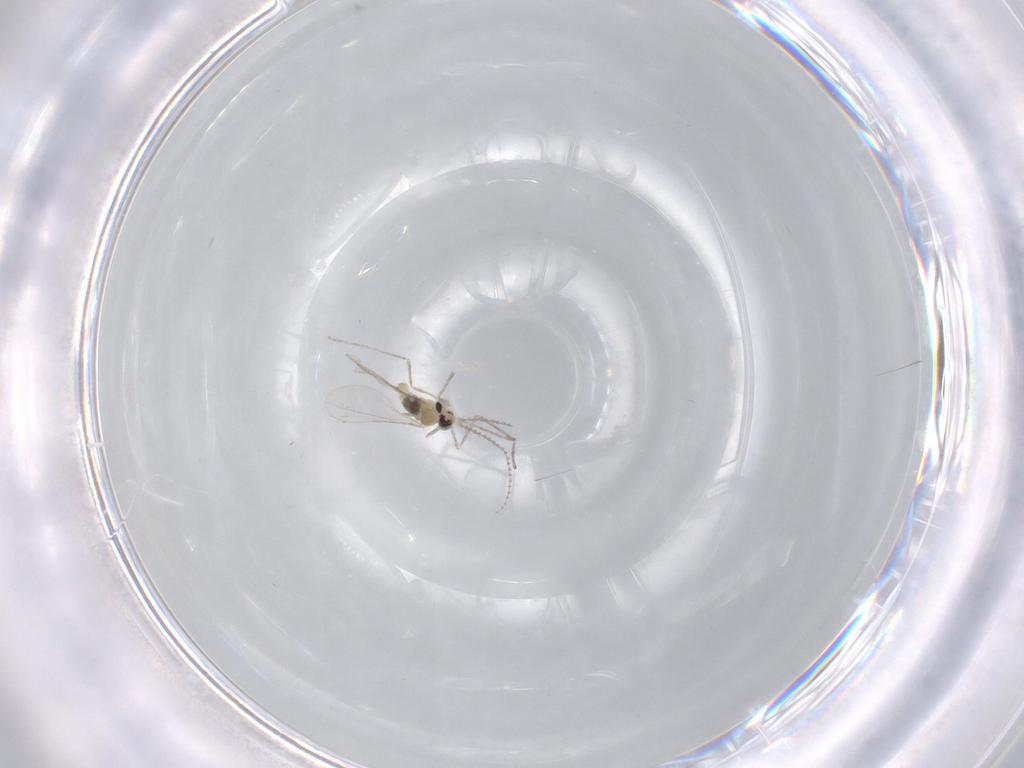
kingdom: Animalia
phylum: Arthropoda
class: Insecta
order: Diptera
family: Cecidomyiidae
